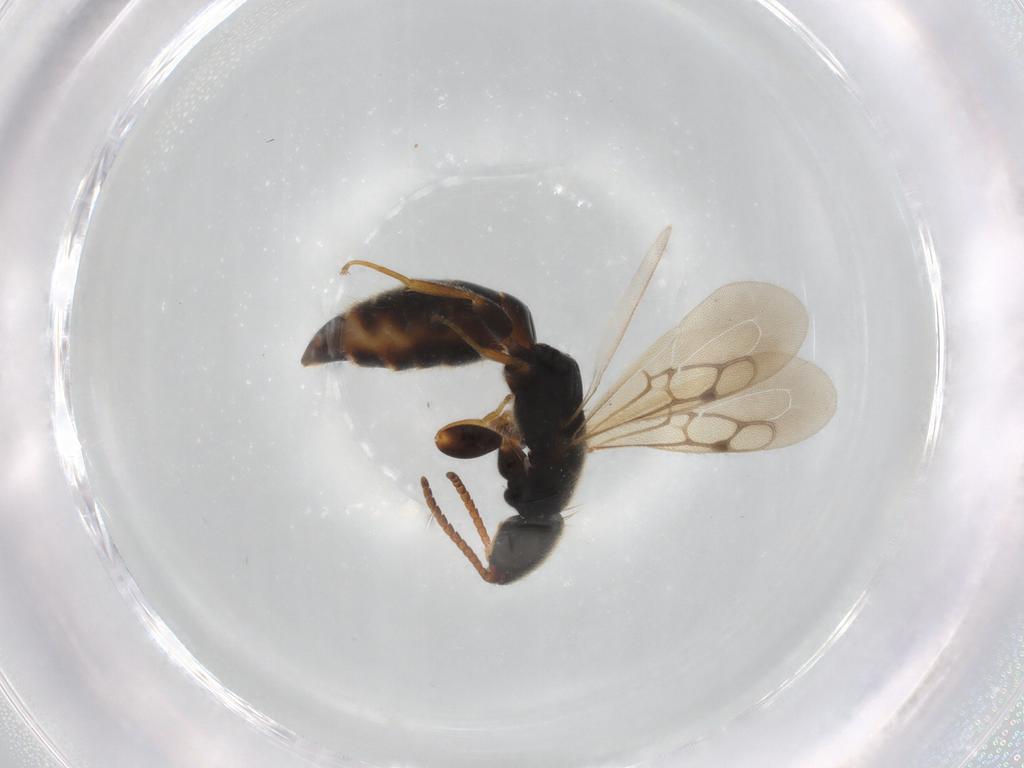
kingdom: Animalia
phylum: Arthropoda
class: Insecta
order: Hymenoptera
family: Bethylidae
